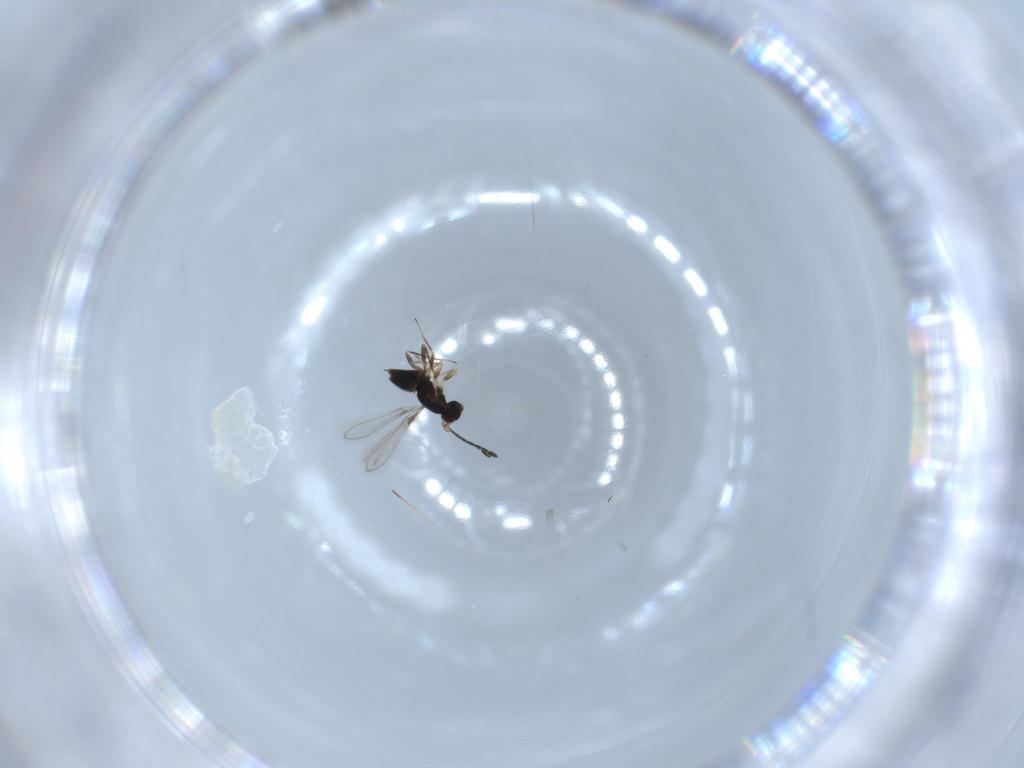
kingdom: Animalia
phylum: Arthropoda
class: Insecta
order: Hymenoptera
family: Mymaridae
